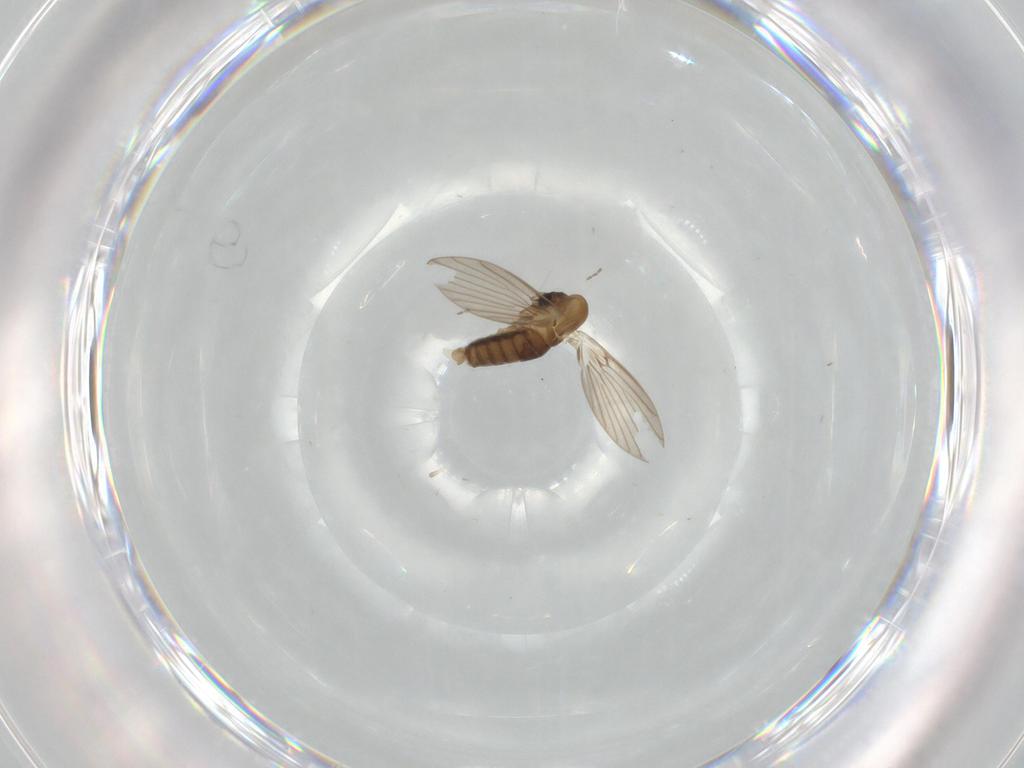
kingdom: Animalia
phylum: Arthropoda
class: Insecta
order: Diptera
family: Psychodidae
